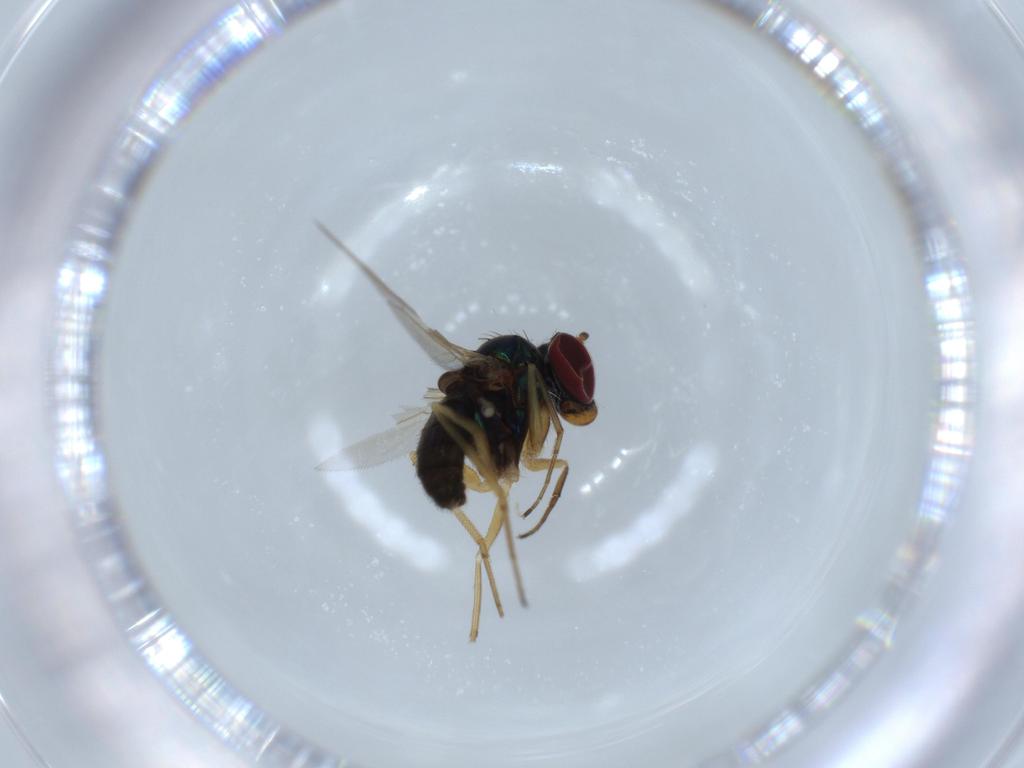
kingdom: Animalia
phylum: Arthropoda
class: Insecta
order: Diptera
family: Dolichopodidae
